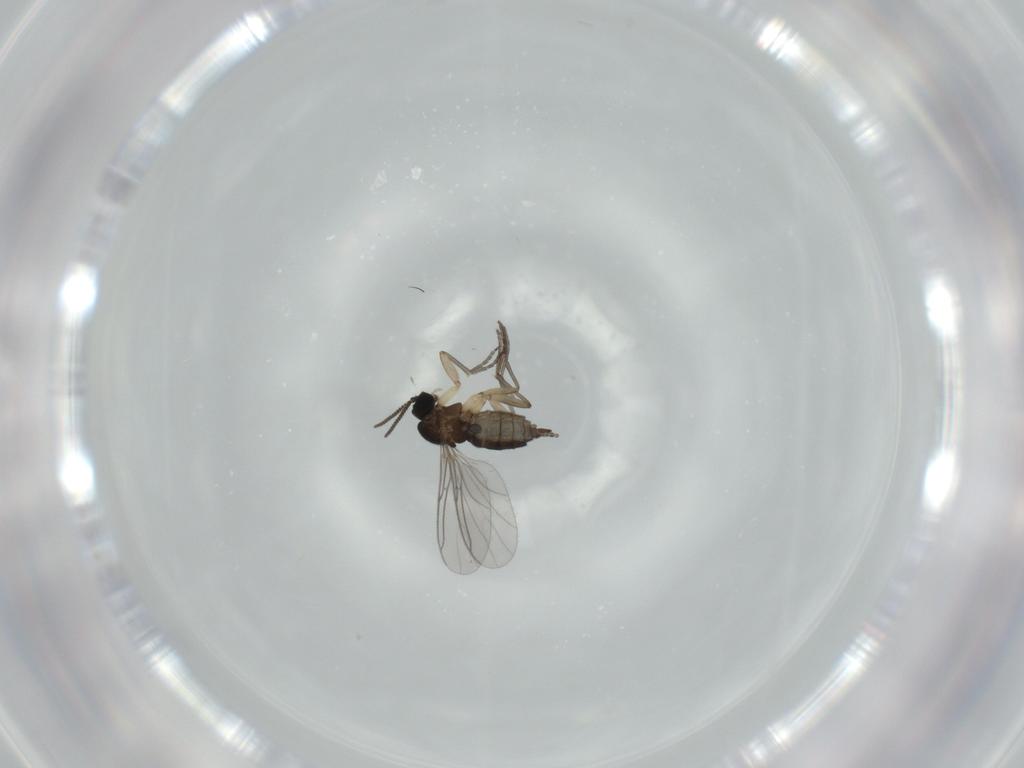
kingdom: Animalia
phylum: Arthropoda
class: Insecta
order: Diptera
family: Sciaridae
